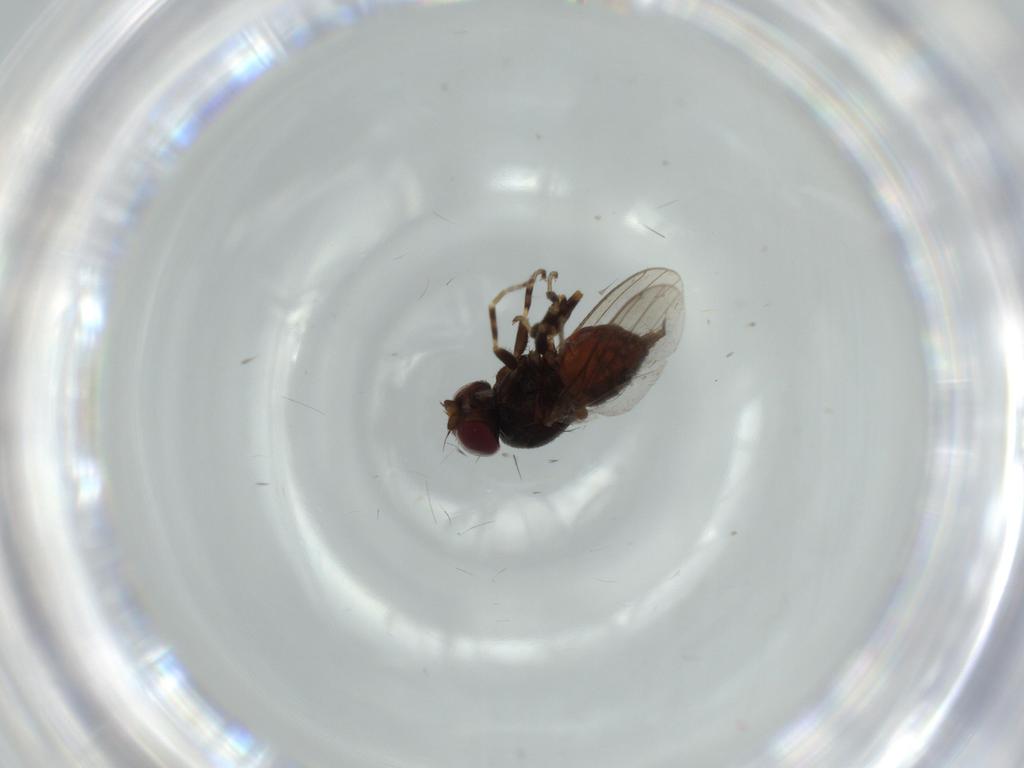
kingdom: Animalia
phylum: Arthropoda
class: Insecta
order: Diptera
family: Chloropidae
